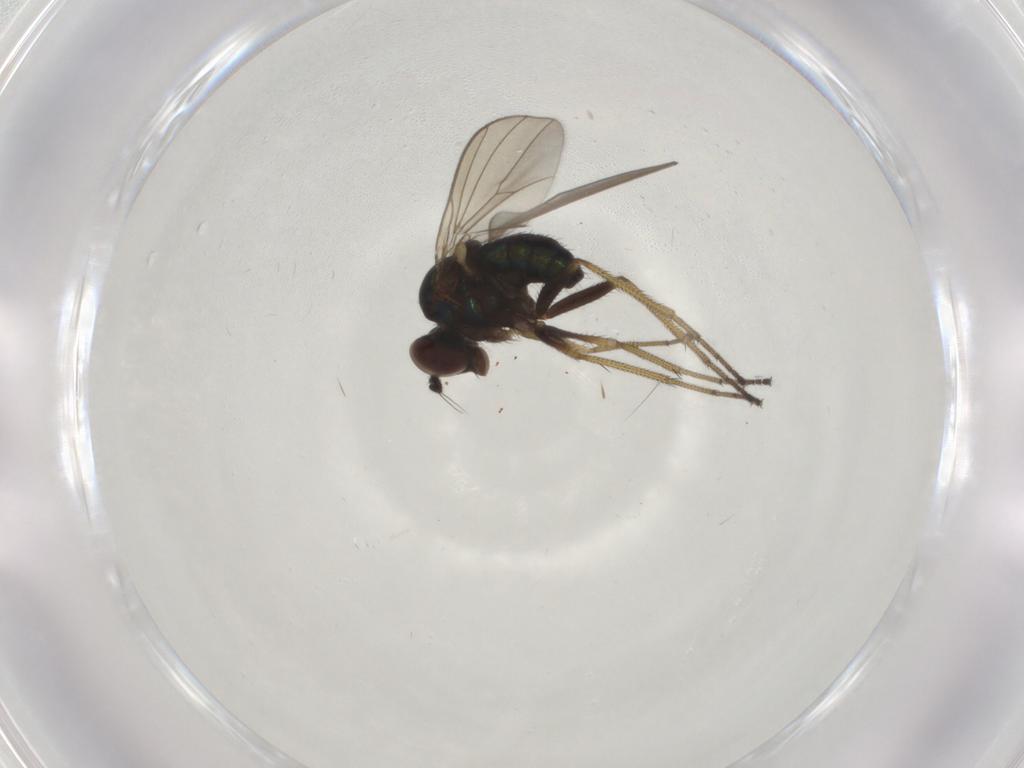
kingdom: Animalia
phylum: Arthropoda
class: Insecta
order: Diptera
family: Dolichopodidae
